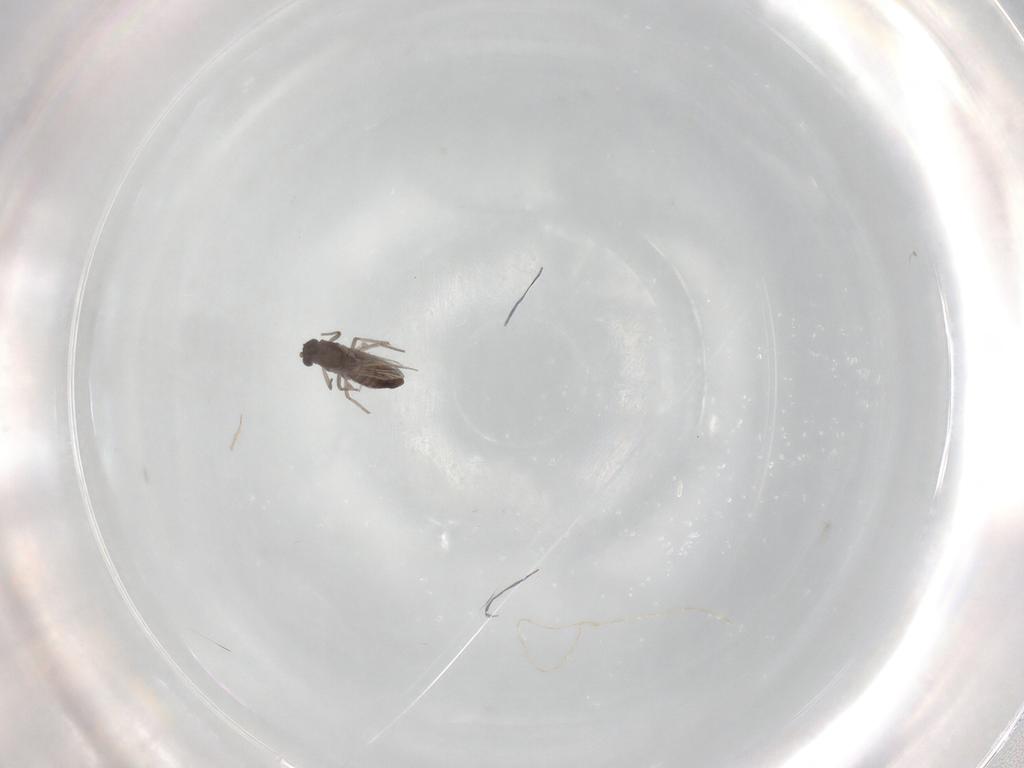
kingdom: Animalia
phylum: Arthropoda
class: Insecta
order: Diptera
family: Chironomidae
